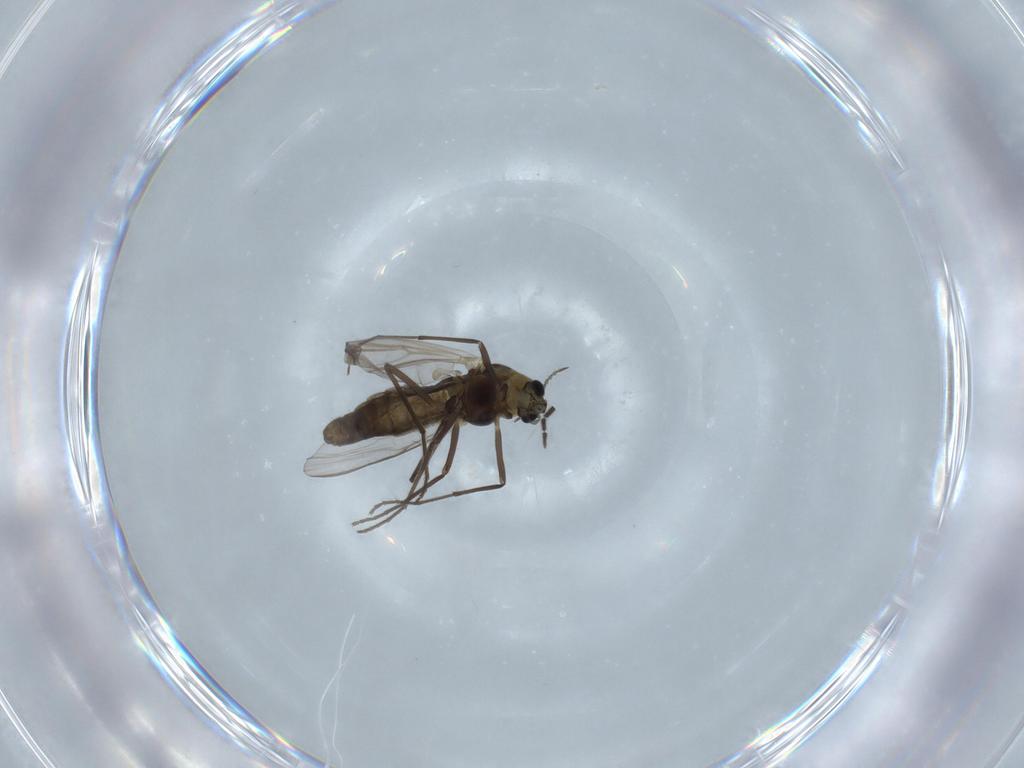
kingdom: Animalia
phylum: Arthropoda
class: Insecta
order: Diptera
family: Chironomidae
